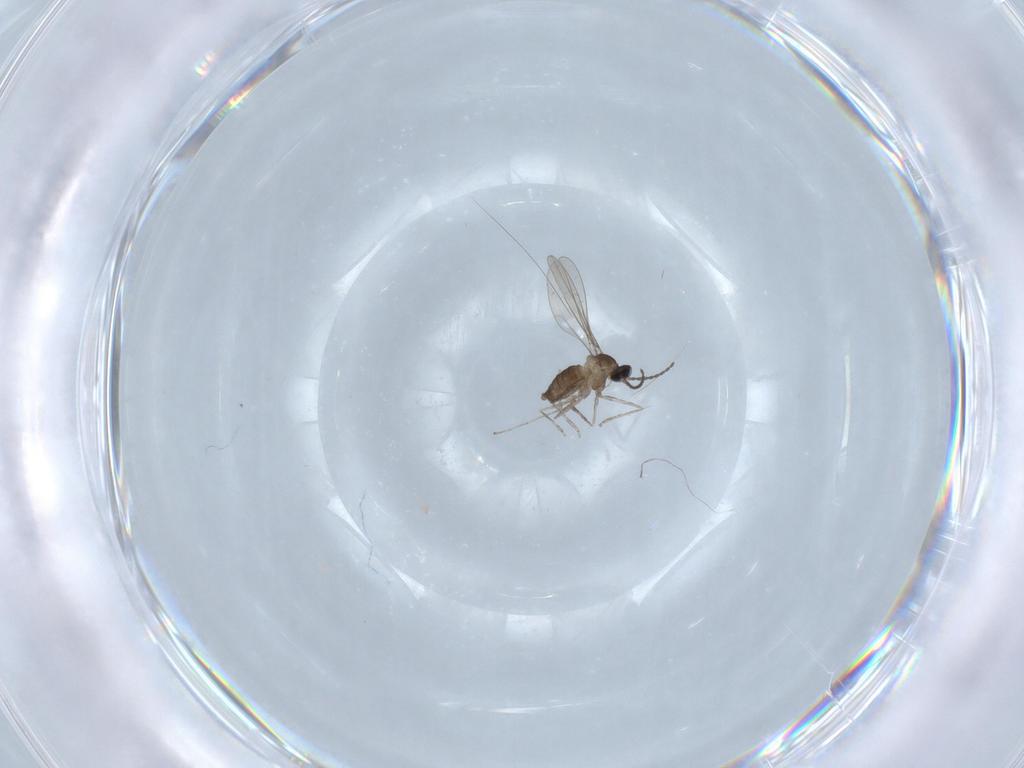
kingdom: Animalia
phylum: Arthropoda
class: Insecta
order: Diptera
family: Cecidomyiidae
